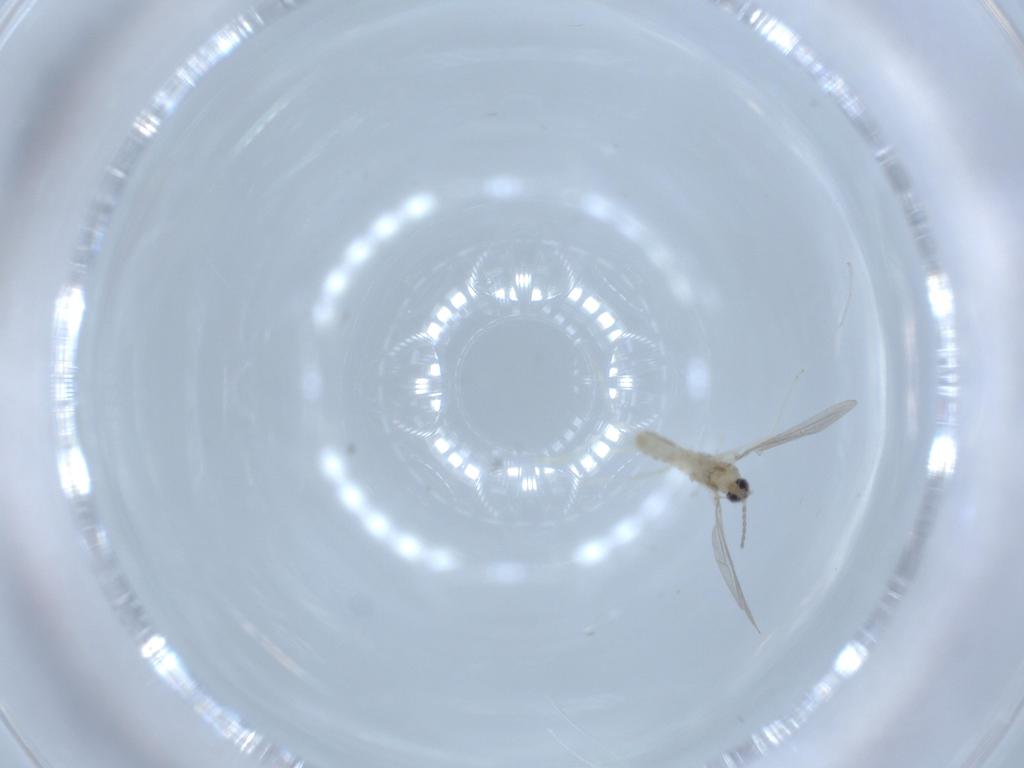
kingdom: Animalia
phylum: Arthropoda
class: Insecta
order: Diptera
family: Cecidomyiidae
